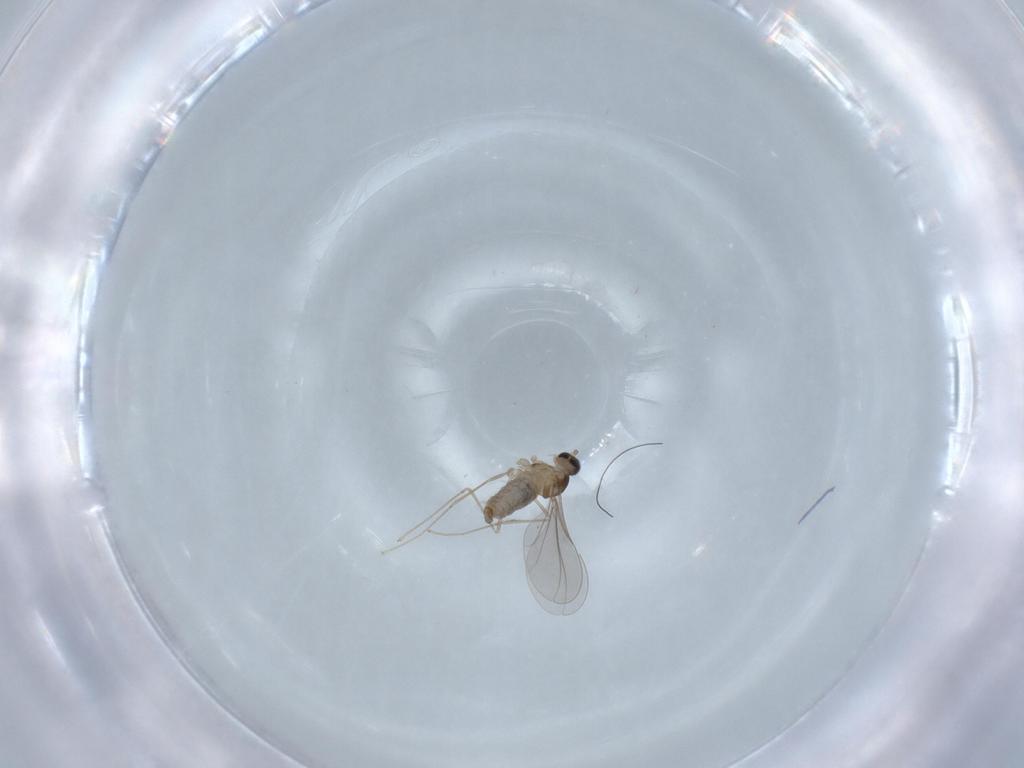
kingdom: Animalia
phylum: Arthropoda
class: Insecta
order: Diptera
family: Cecidomyiidae
